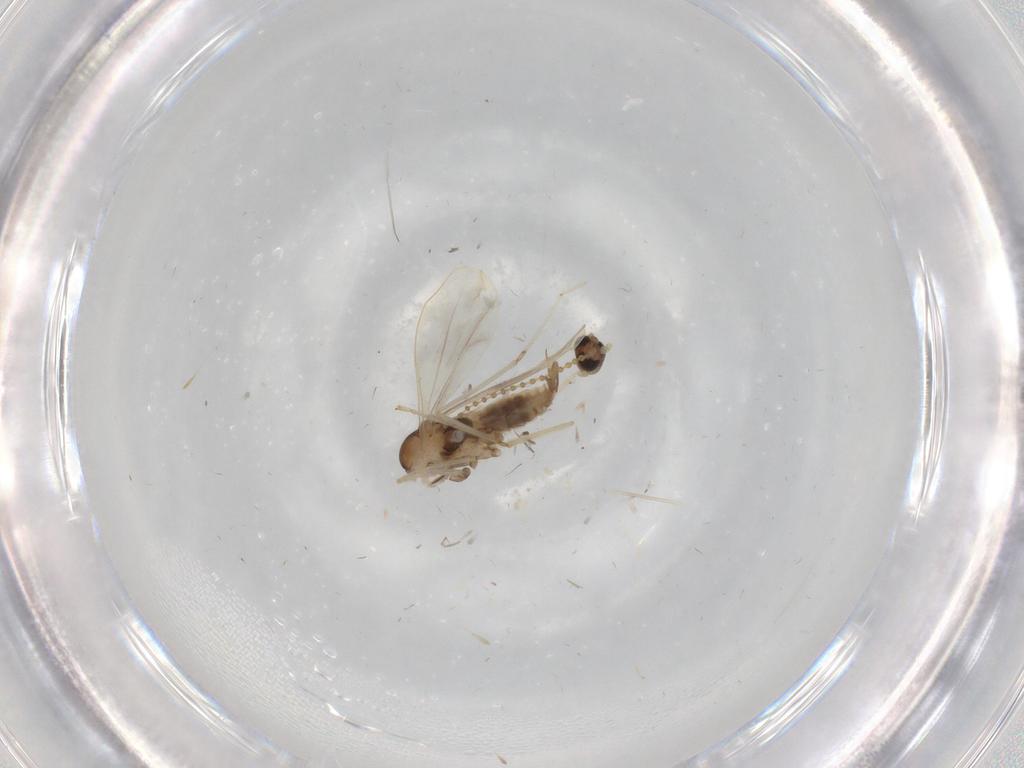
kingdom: Animalia
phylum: Arthropoda
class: Insecta
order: Diptera
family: Cecidomyiidae
